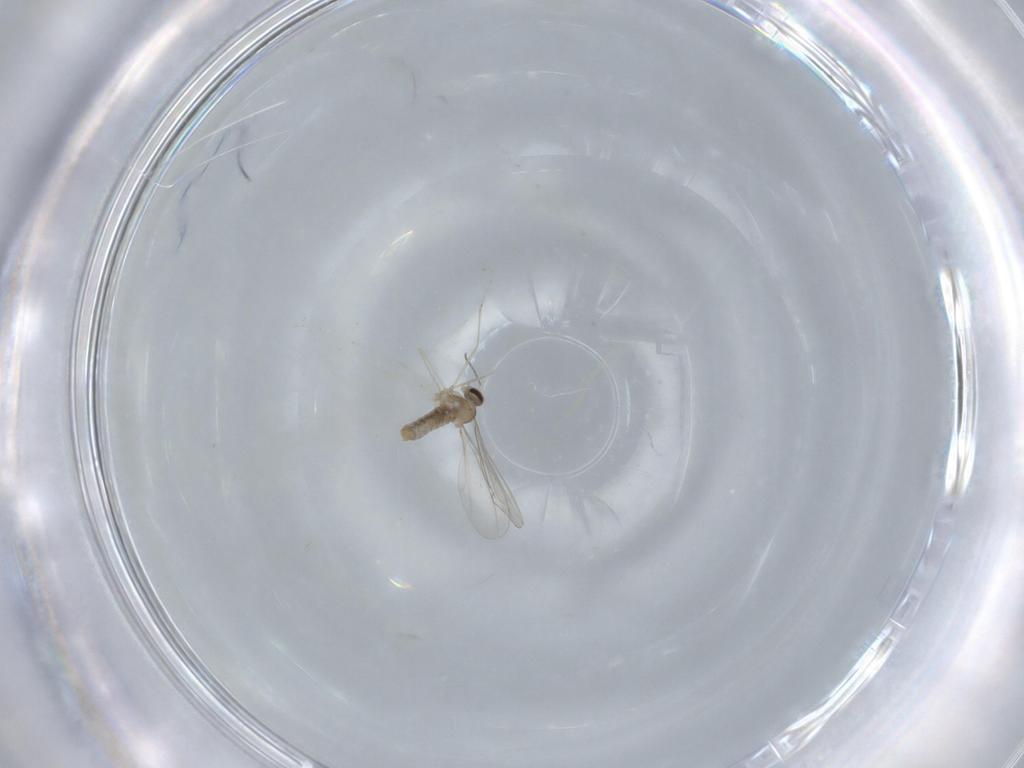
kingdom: Animalia
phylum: Arthropoda
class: Insecta
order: Diptera
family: Cecidomyiidae
